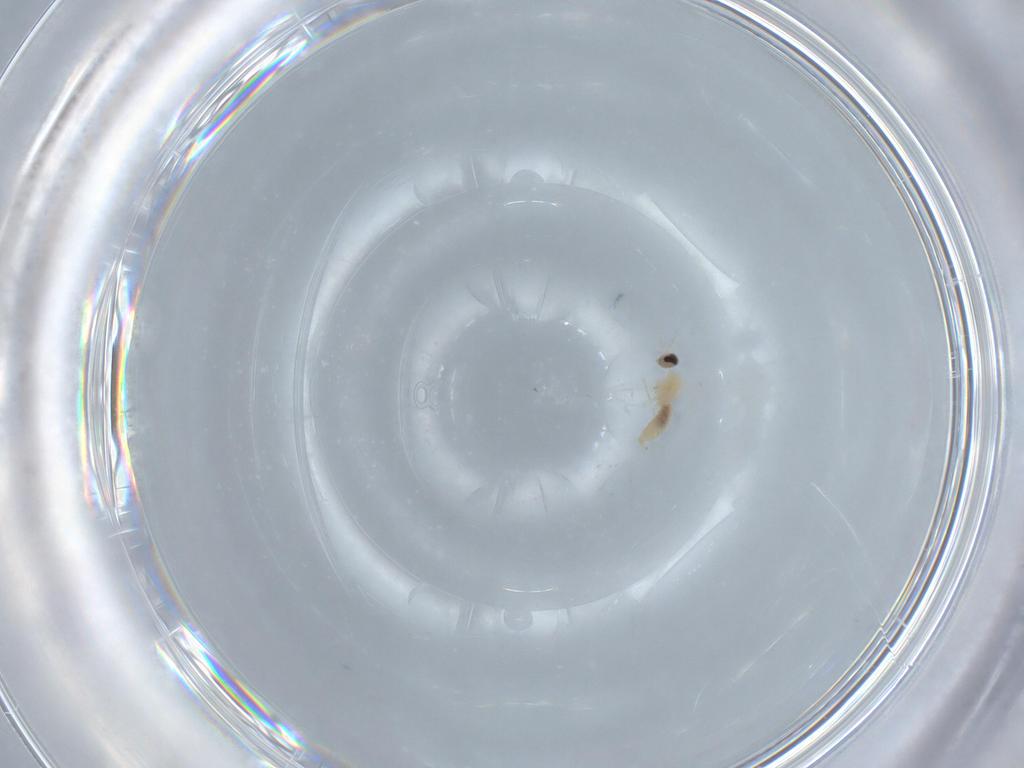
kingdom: Animalia
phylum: Arthropoda
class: Insecta
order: Diptera
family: Cecidomyiidae
